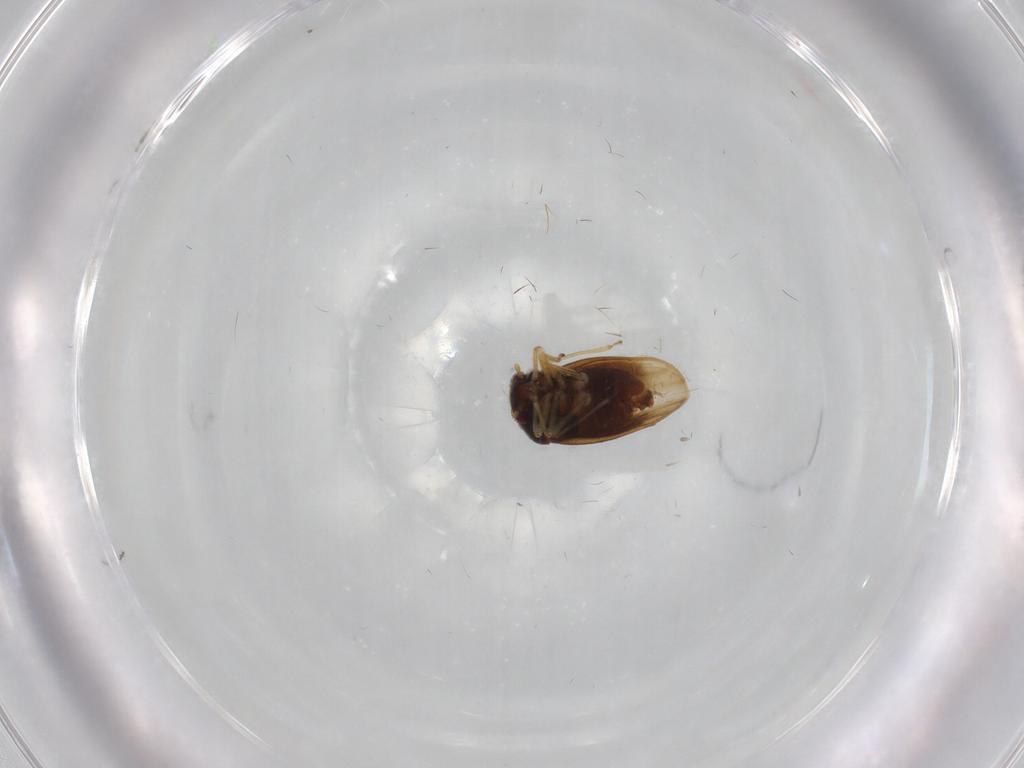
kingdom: Animalia
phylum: Arthropoda
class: Insecta
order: Hemiptera
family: Schizopteridae
